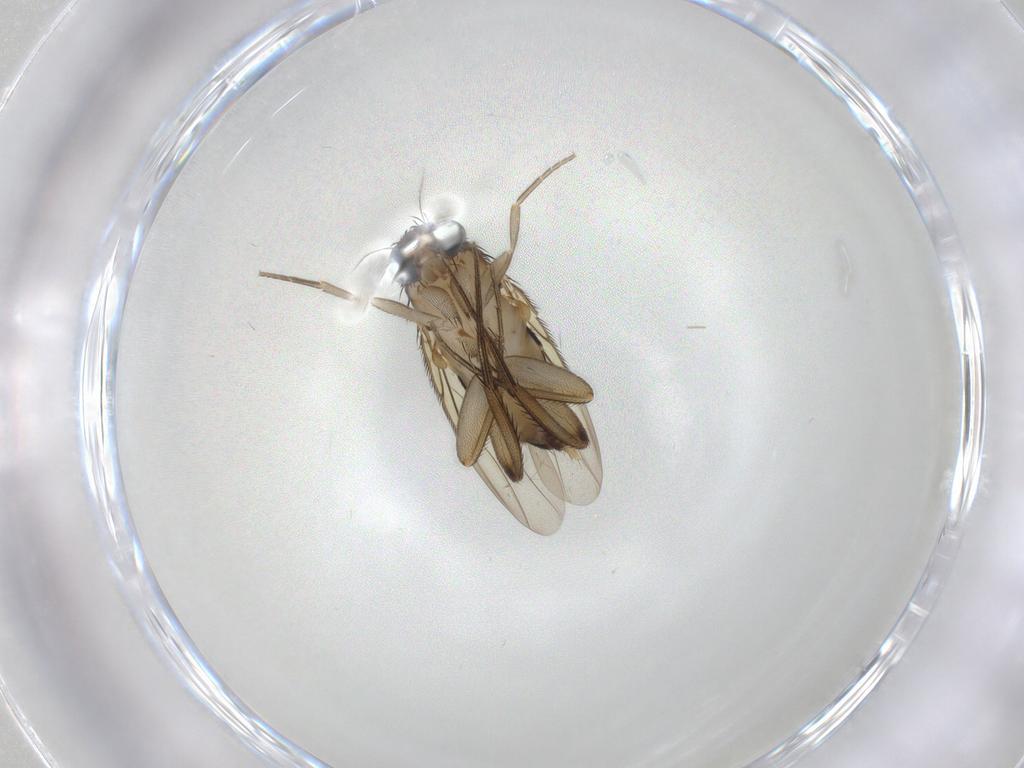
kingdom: Animalia
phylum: Arthropoda
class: Insecta
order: Diptera
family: Phoridae
